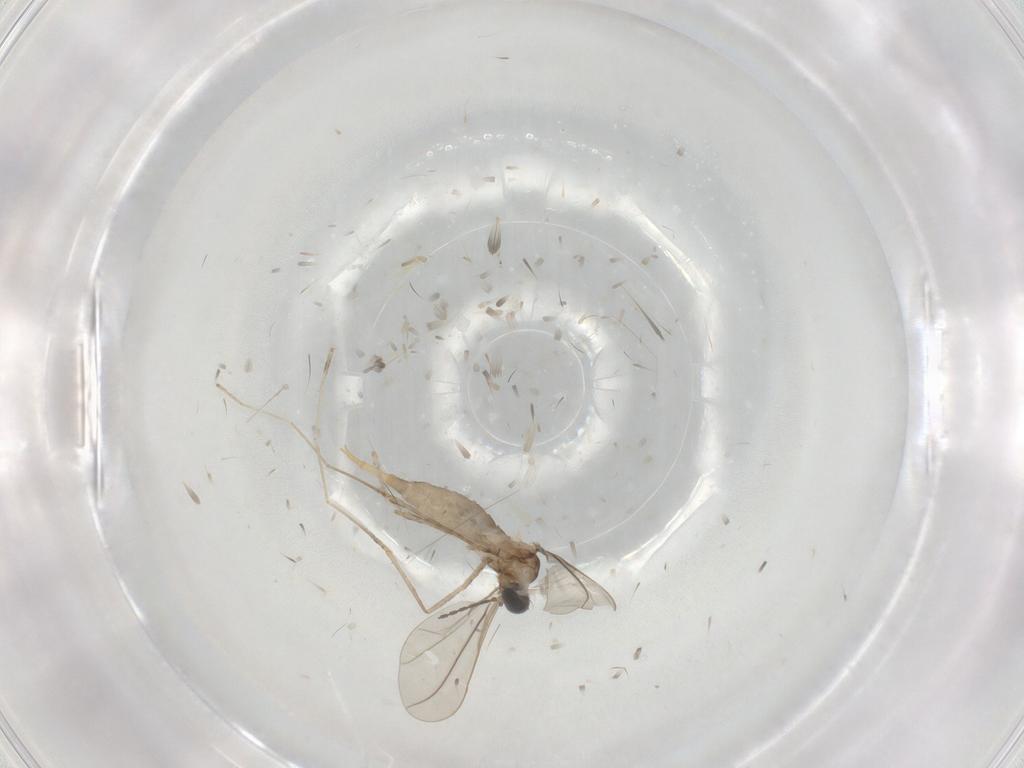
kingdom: Animalia
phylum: Arthropoda
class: Insecta
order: Diptera
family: Cecidomyiidae
